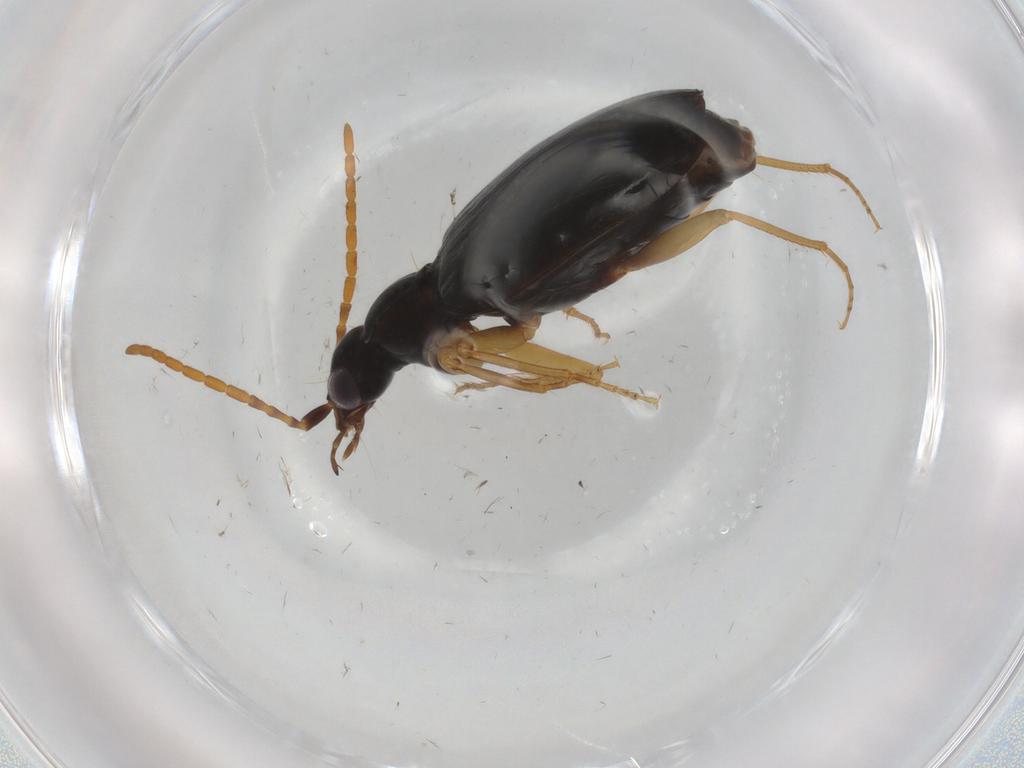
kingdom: Animalia
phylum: Arthropoda
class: Insecta
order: Coleoptera
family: Carabidae
